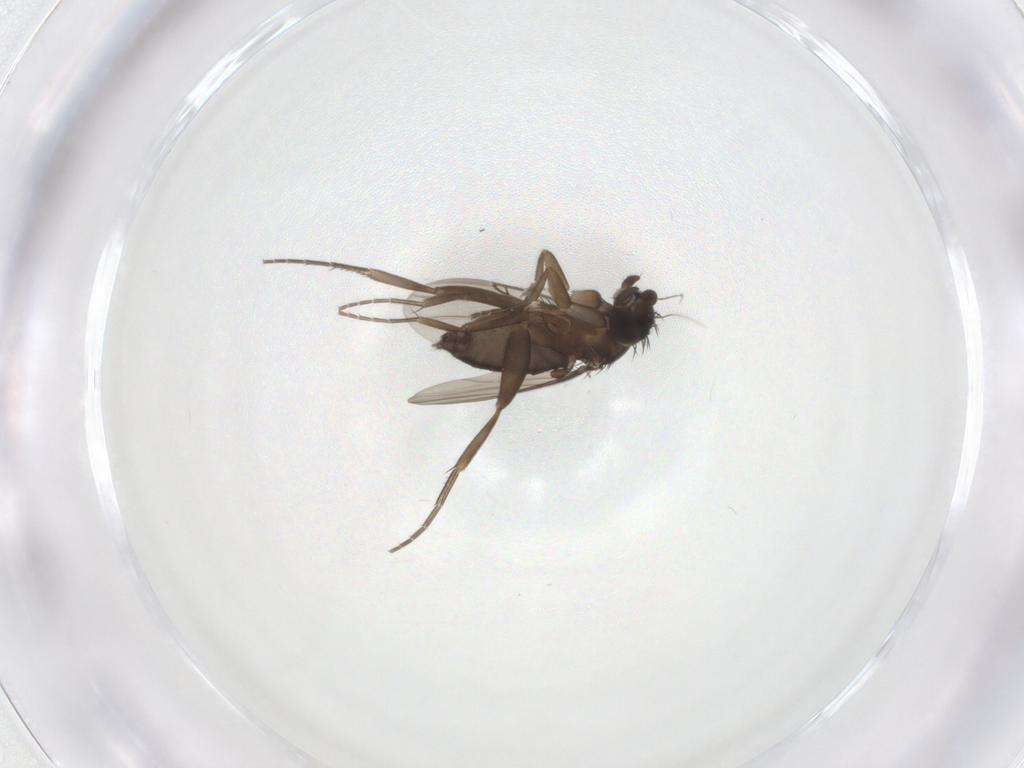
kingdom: Animalia
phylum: Arthropoda
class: Insecta
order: Diptera
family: Phoridae
